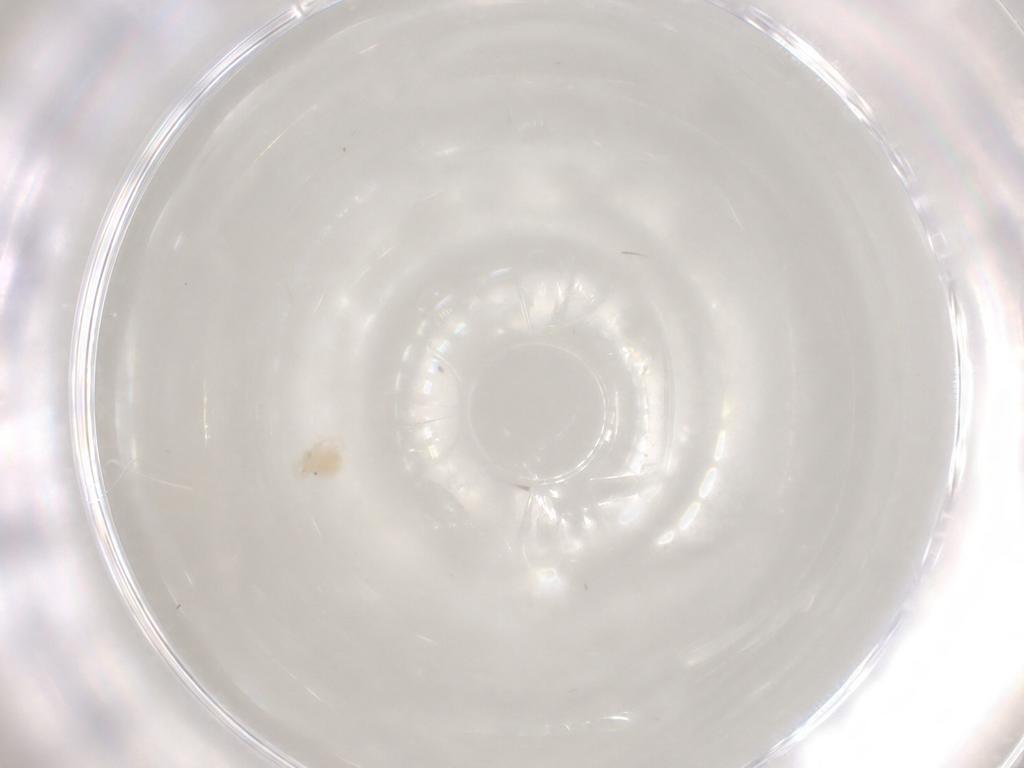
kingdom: Animalia
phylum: Arthropoda
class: Arachnida
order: Trombidiformes
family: Anystidae
